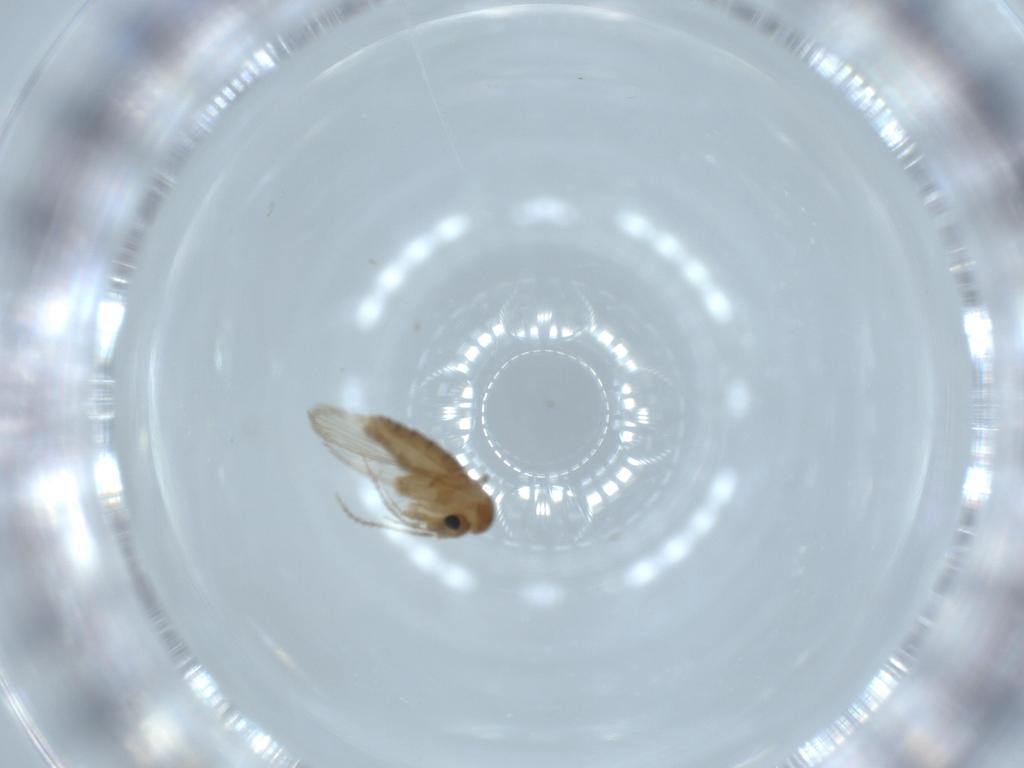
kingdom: Animalia
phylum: Arthropoda
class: Insecta
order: Diptera
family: Psychodidae
